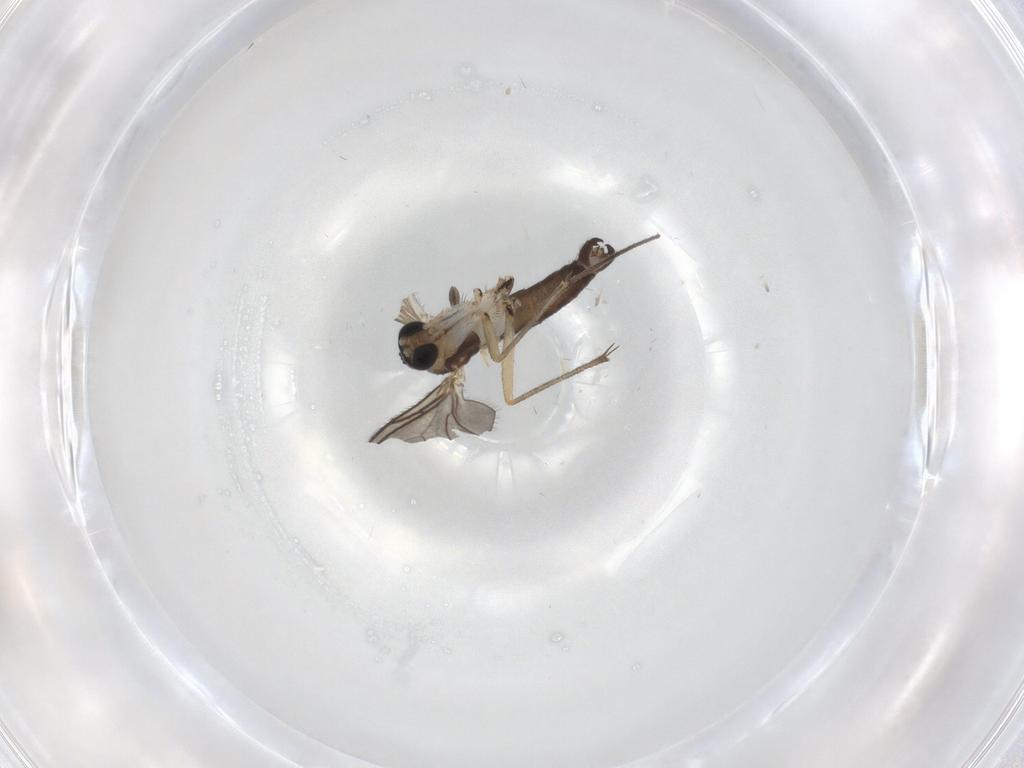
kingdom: Animalia
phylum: Arthropoda
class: Insecta
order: Diptera
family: Sciaridae
